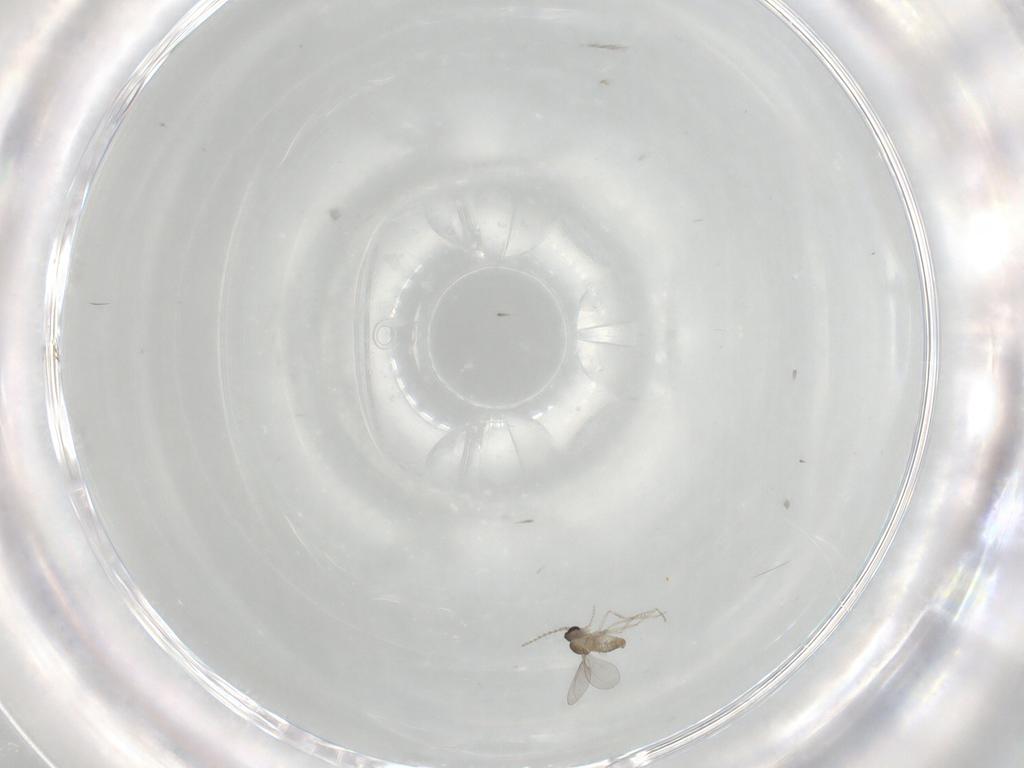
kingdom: Animalia
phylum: Arthropoda
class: Insecta
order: Diptera
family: Cecidomyiidae
